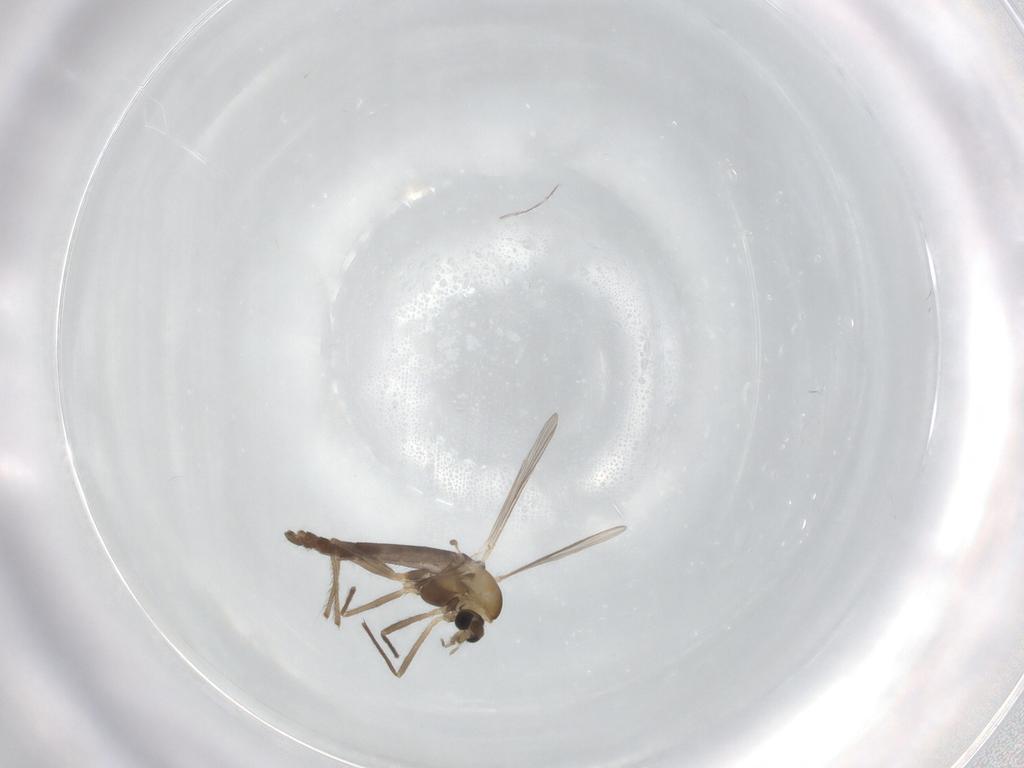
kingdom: Animalia
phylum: Arthropoda
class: Insecta
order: Diptera
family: Chironomidae
